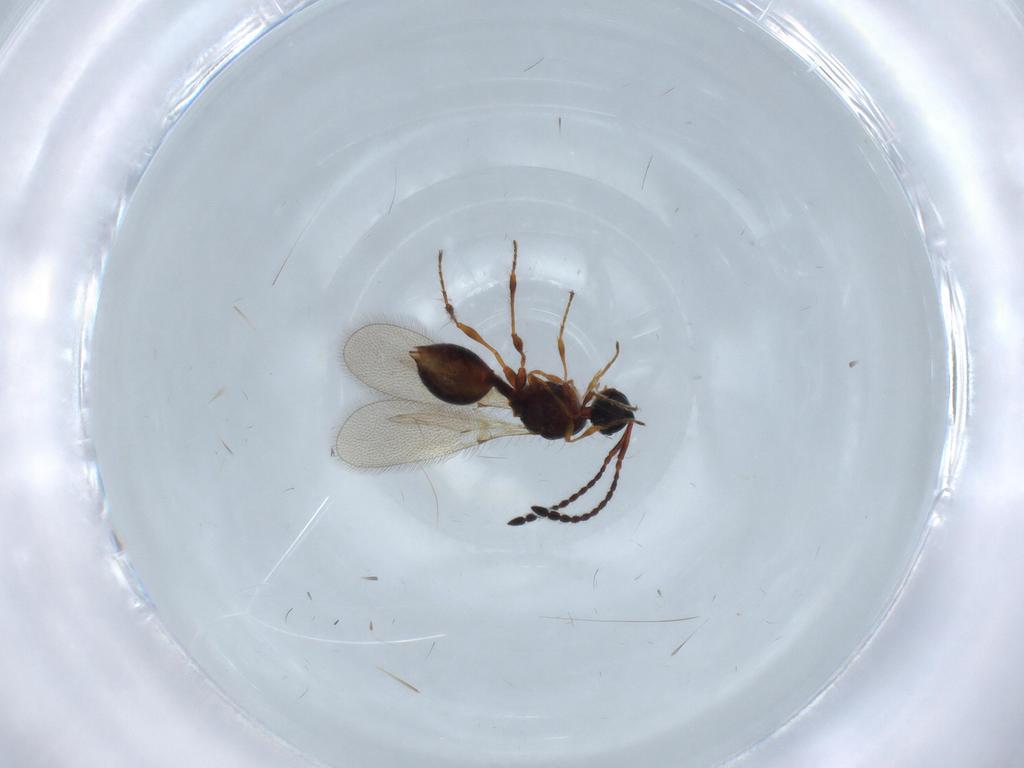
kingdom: Animalia
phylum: Arthropoda
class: Insecta
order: Hymenoptera
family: Diapriidae
